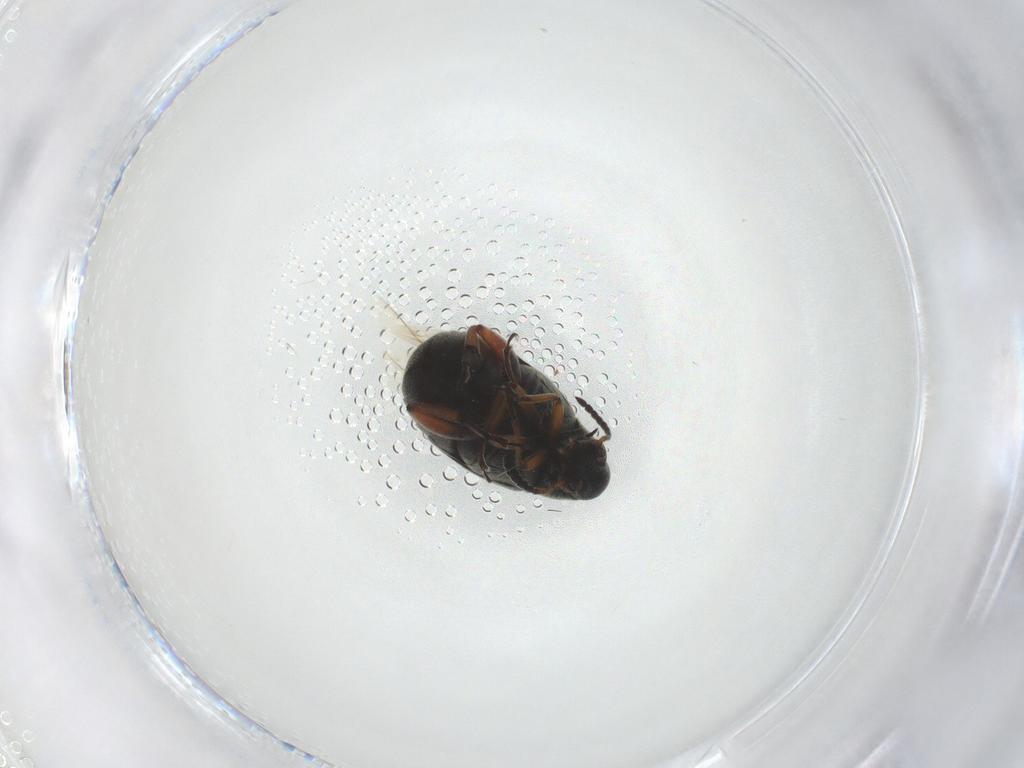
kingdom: Animalia
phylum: Arthropoda
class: Insecta
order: Coleoptera
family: Chrysomelidae
